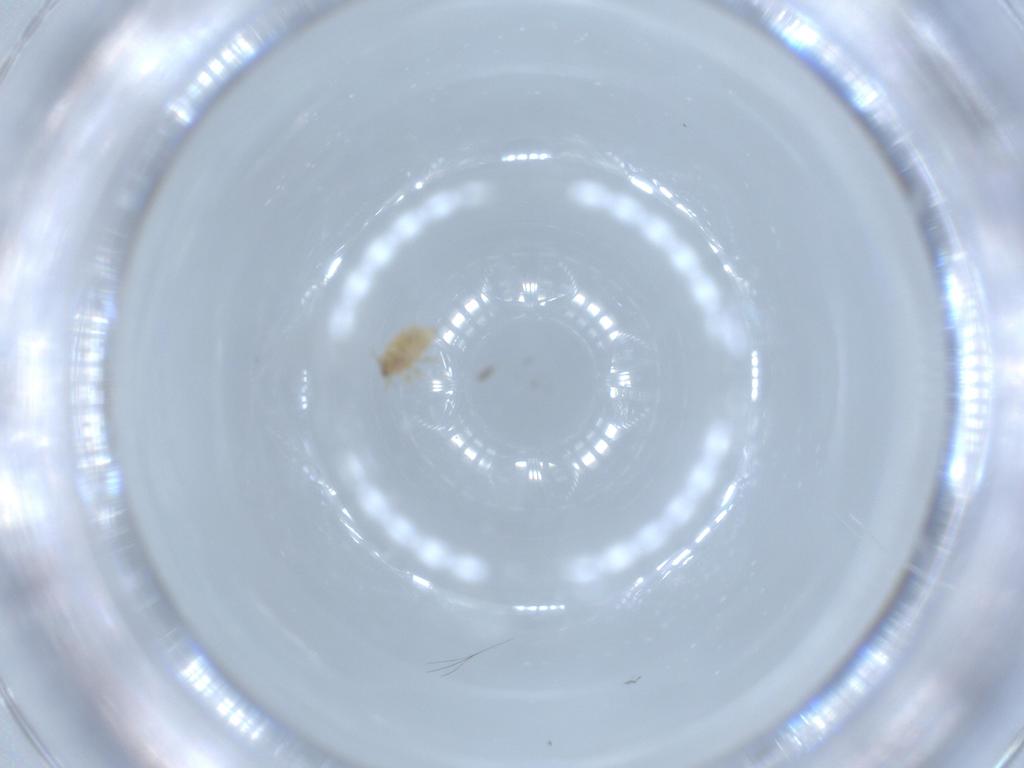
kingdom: Animalia
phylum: Arthropoda
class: Insecta
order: Neuroptera
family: Coniopterygidae
